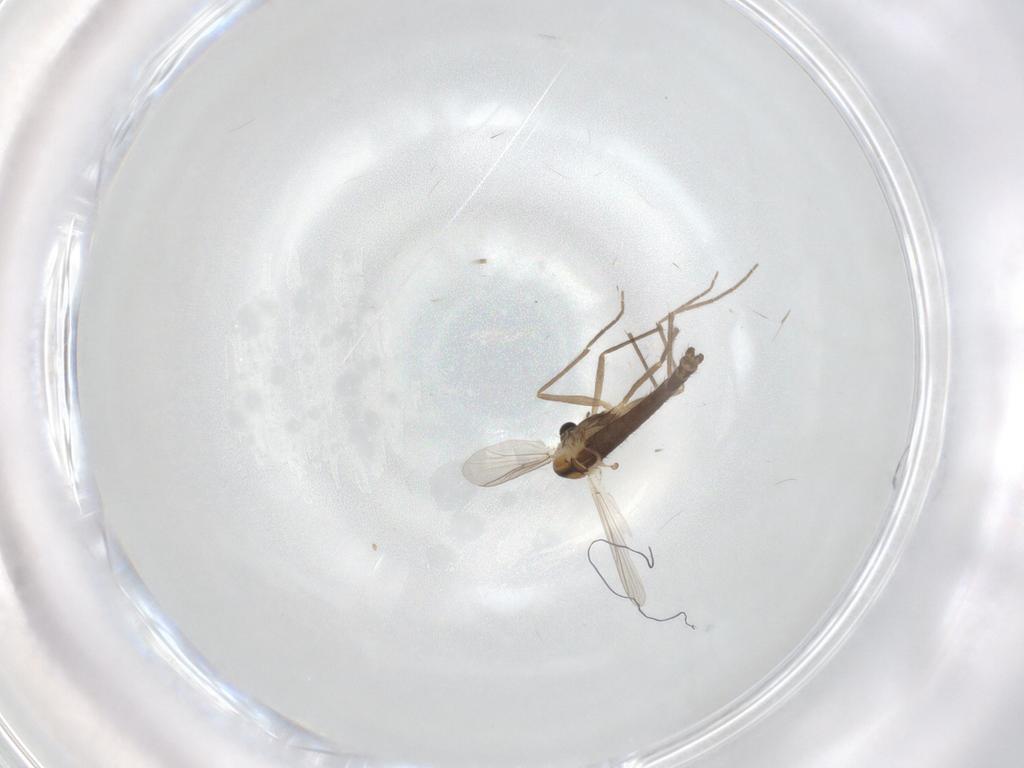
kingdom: Animalia
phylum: Arthropoda
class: Insecta
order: Diptera
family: Chironomidae
